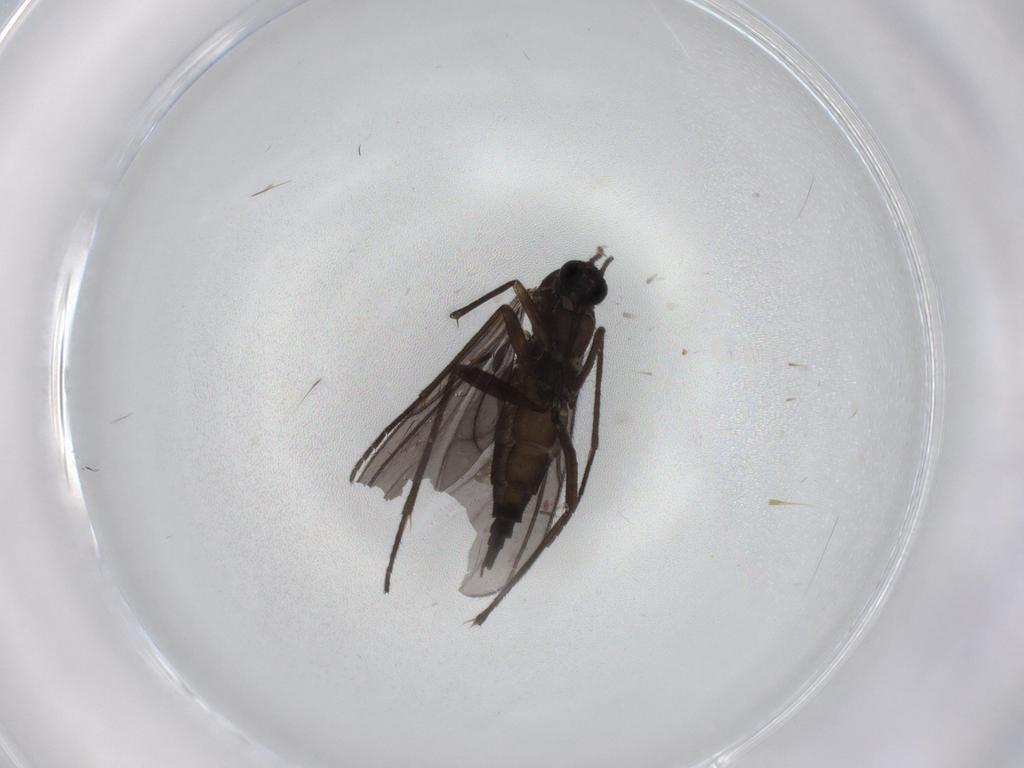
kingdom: Animalia
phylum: Arthropoda
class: Insecta
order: Diptera
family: Sciaridae
